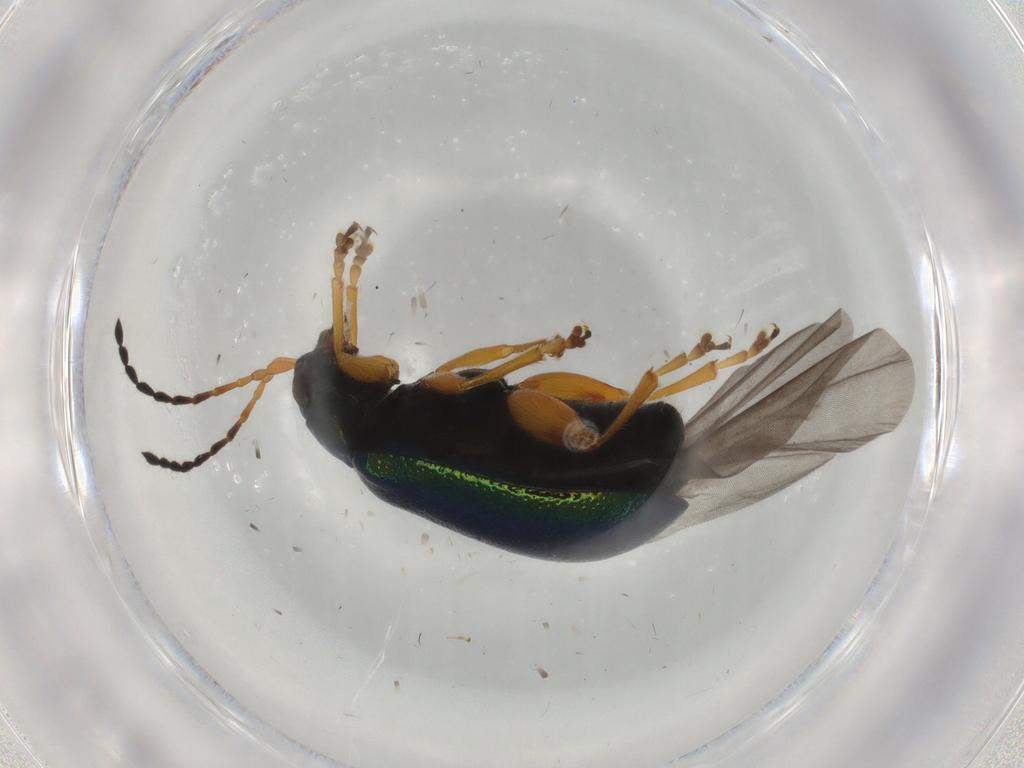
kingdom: Animalia
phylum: Arthropoda
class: Insecta
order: Coleoptera
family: Chrysomelidae
